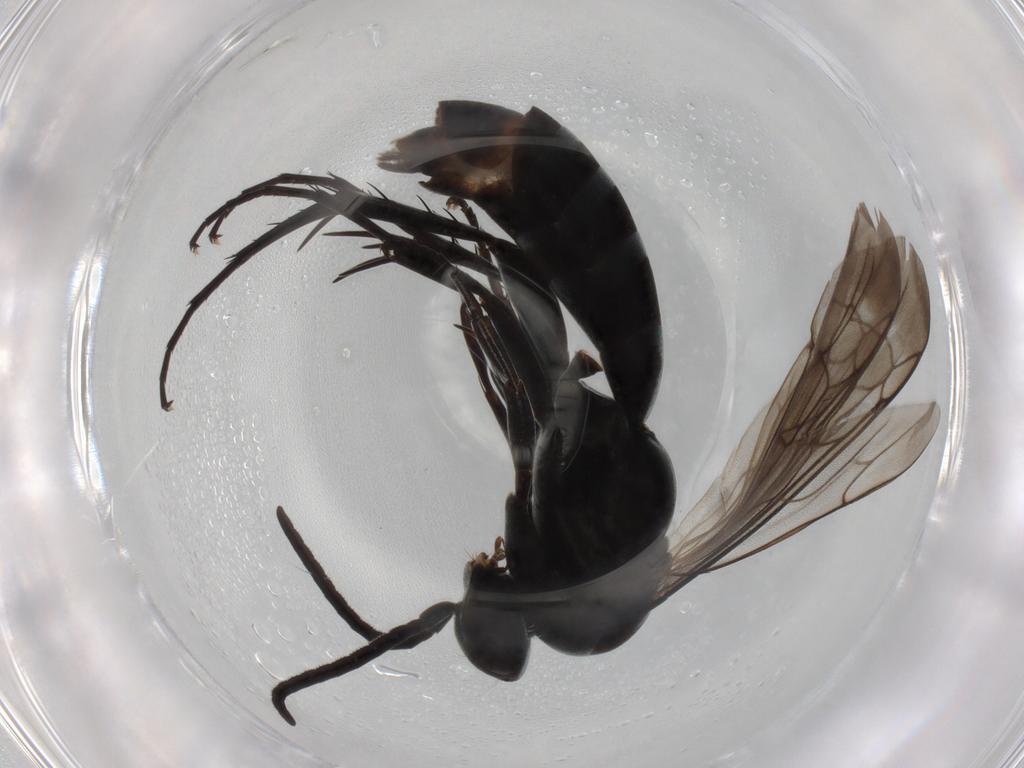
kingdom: Animalia
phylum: Arthropoda
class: Insecta
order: Hymenoptera
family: Pompilidae
